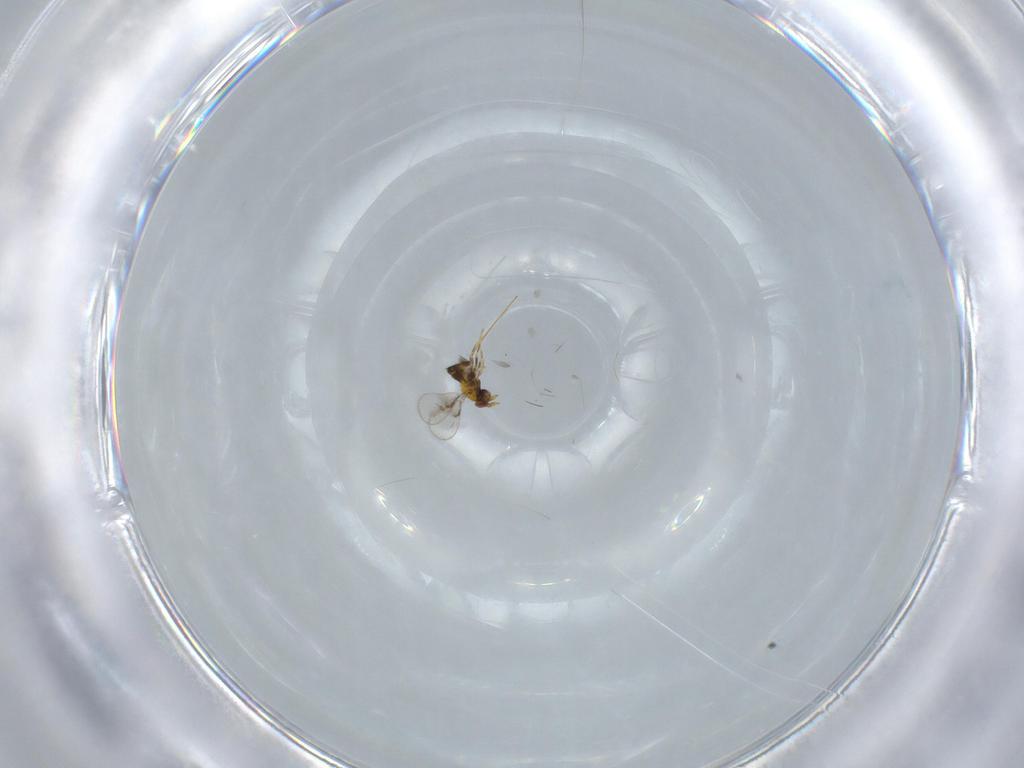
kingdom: Animalia
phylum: Arthropoda
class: Insecta
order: Hymenoptera
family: Scoliidae
